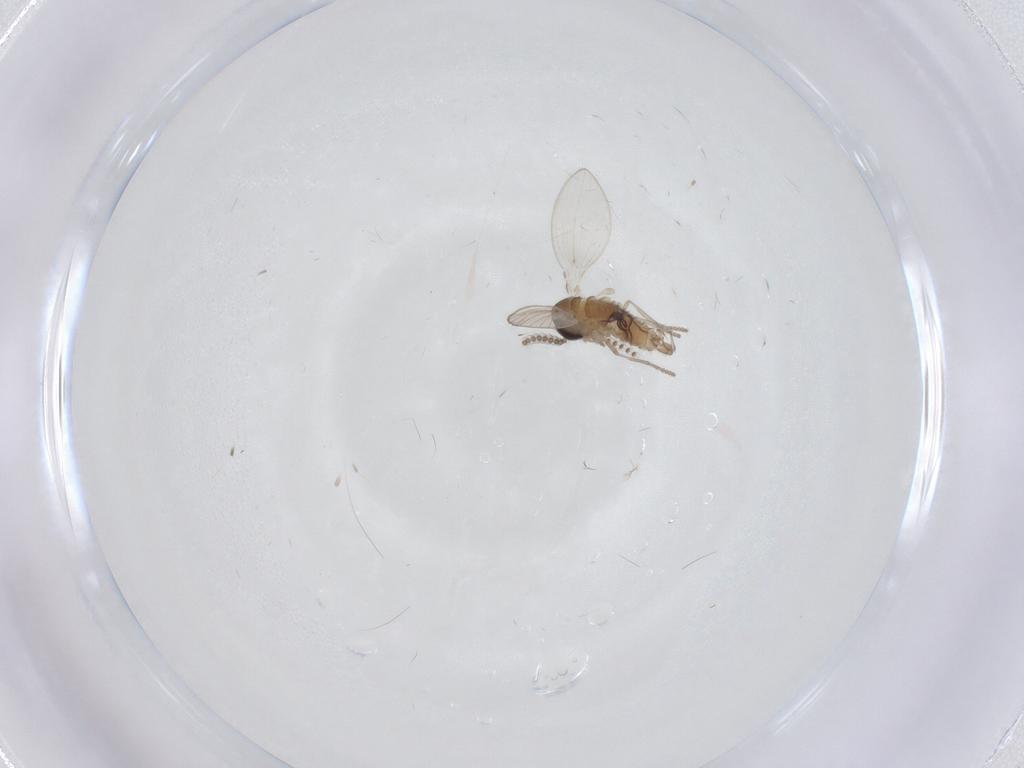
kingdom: Animalia
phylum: Arthropoda
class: Insecta
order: Diptera
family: Psychodidae
